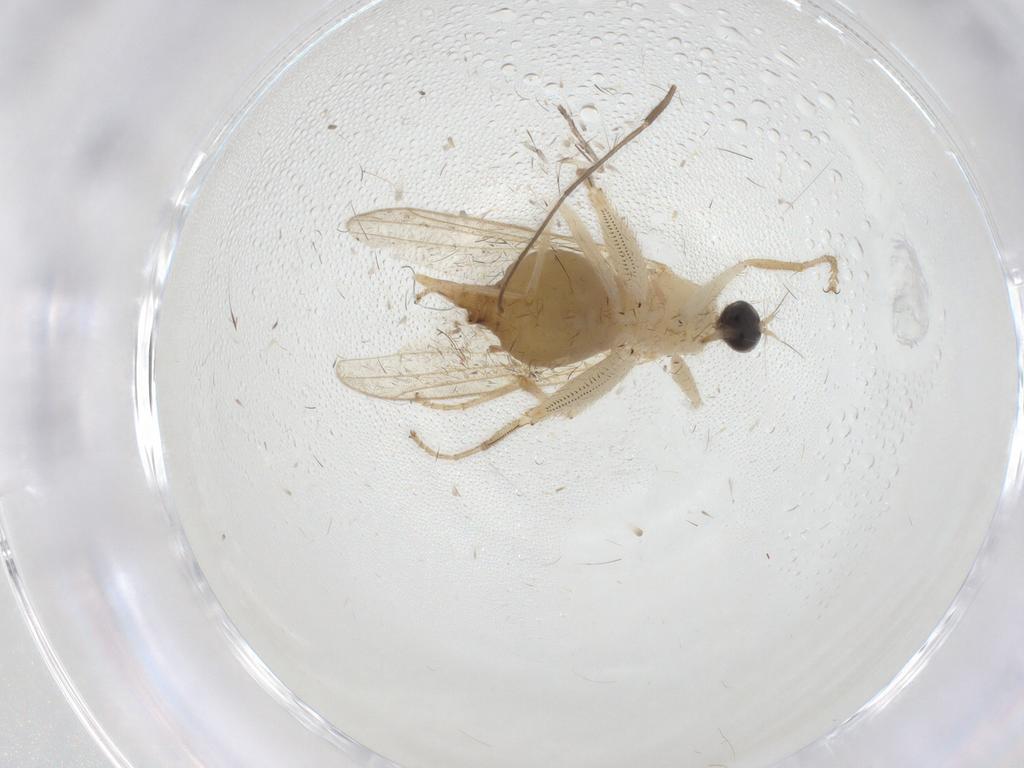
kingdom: Animalia
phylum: Arthropoda
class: Insecta
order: Diptera
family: Hybotidae
